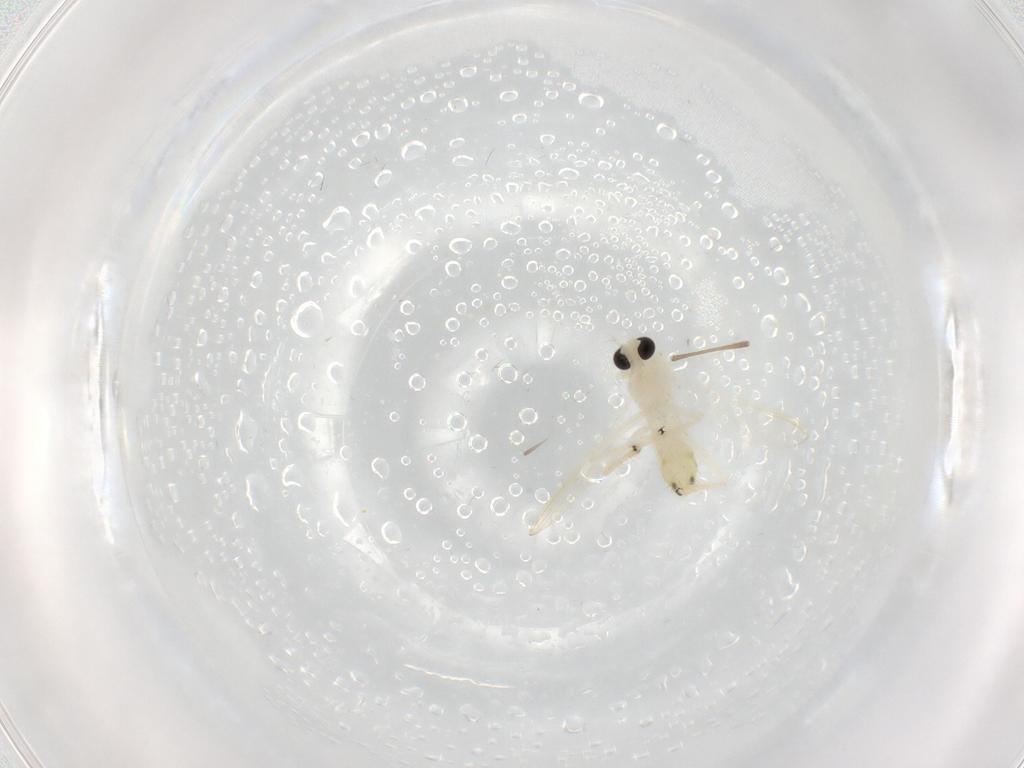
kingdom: Animalia
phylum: Arthropoda
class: Insecta
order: Diptera
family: Chironomidae
